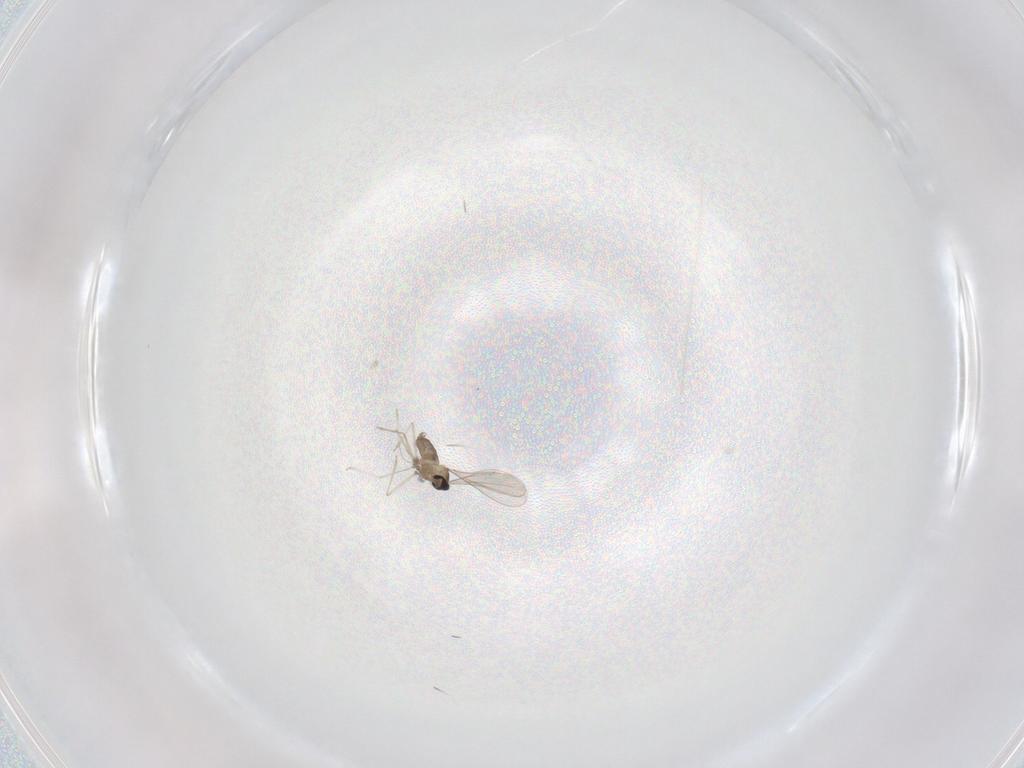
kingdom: Animalia
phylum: Arthropoda
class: Insecta
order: Diptera
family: Cecidomyiidae
